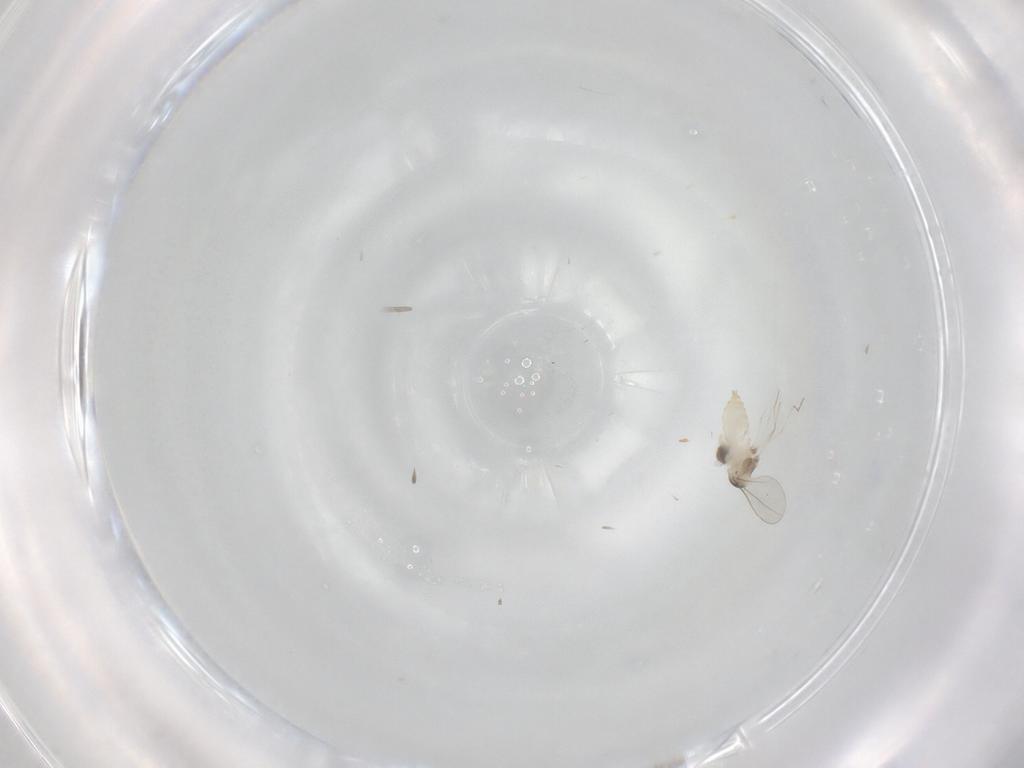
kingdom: Animalia
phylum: Arthropoda
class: Insecta
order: Diptera
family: Cecidomyiidae
